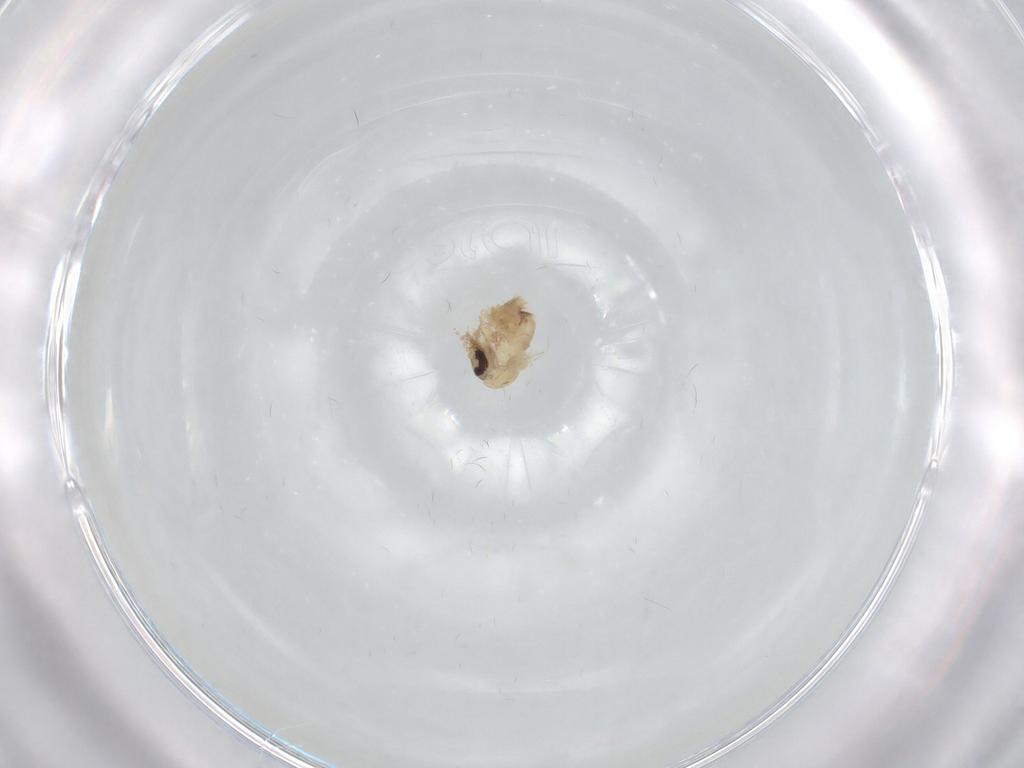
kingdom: Animalia
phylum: Arthropoda
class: Insecta
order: Diptera
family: Psychodidae
